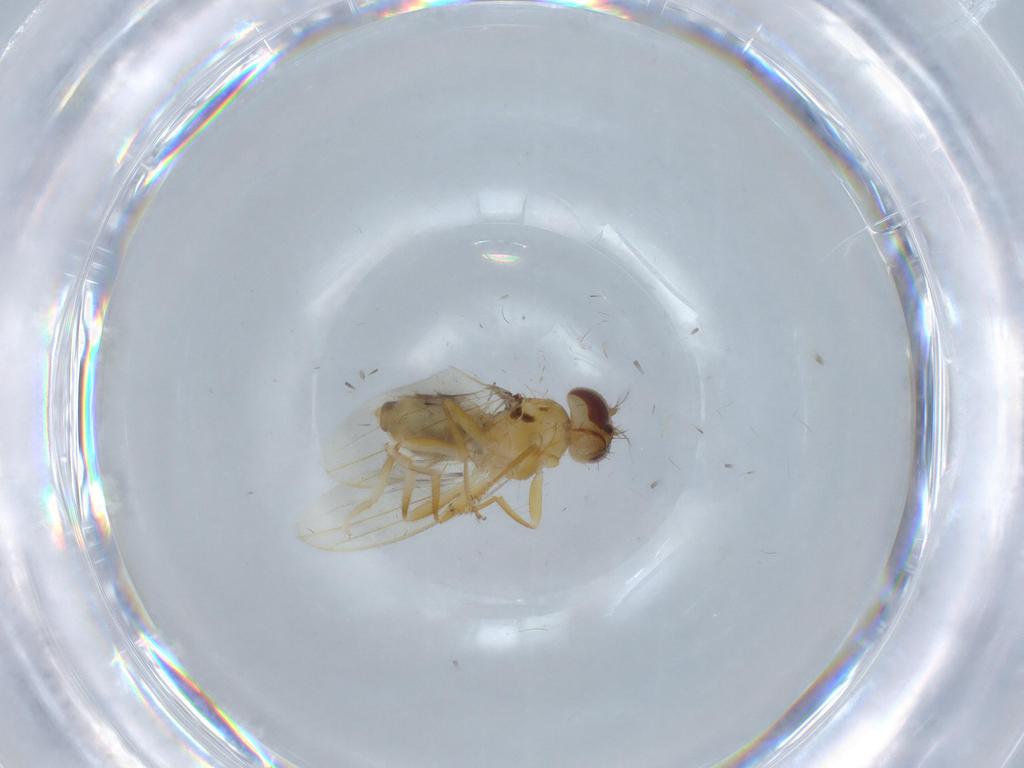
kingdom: Animalia
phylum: Arthropoda
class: Insecta
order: Diptera
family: Periscelididae
